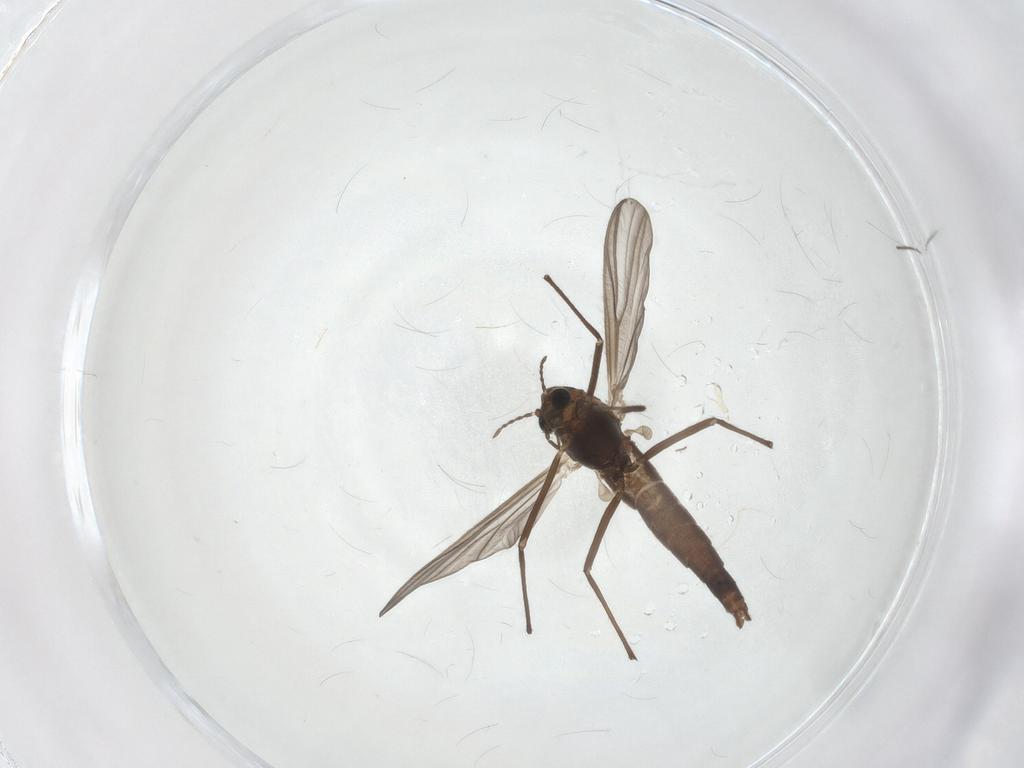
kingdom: Animalia
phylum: Arthropoda
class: Insecta
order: Diptera
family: Chironomidae
